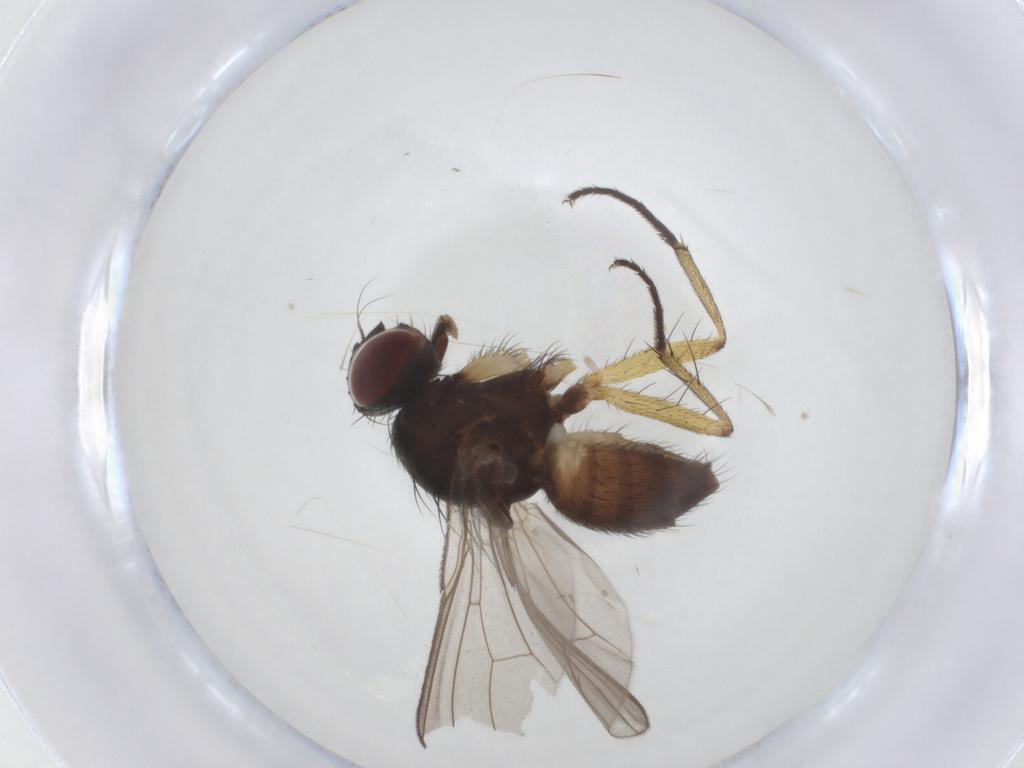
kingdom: Animalia
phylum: Arthropoda
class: Insecta
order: Diptera
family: Muscidae
